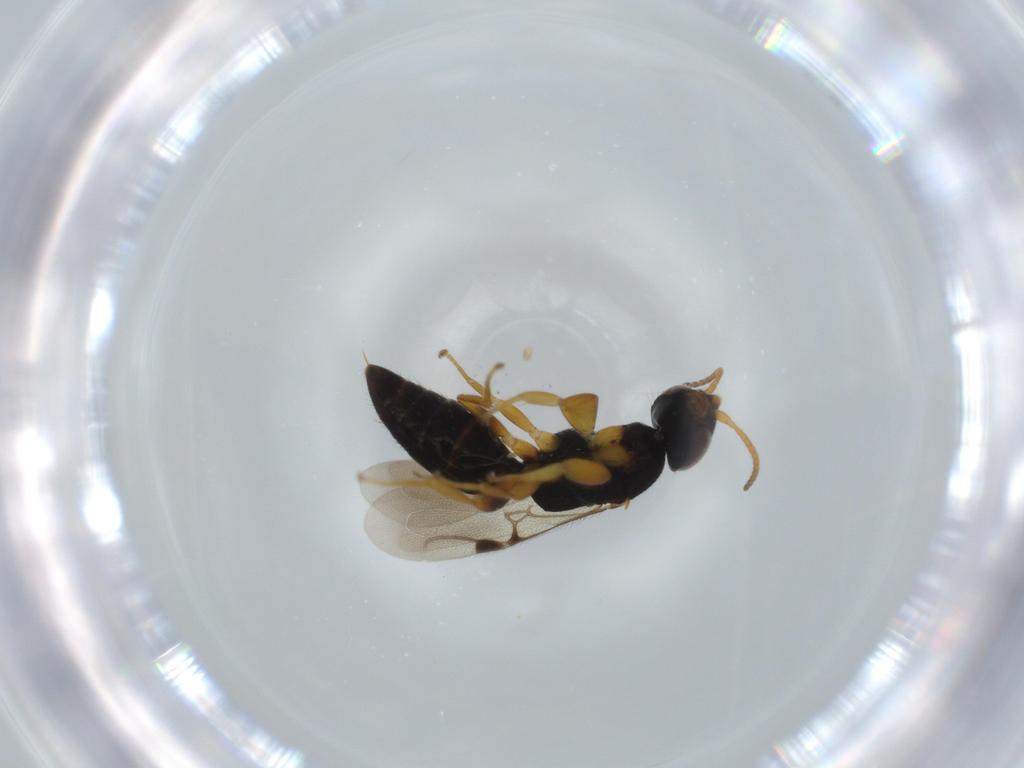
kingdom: Animalia
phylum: Arthropoda
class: Insecta
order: Hymenoptera
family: Bethylidae
